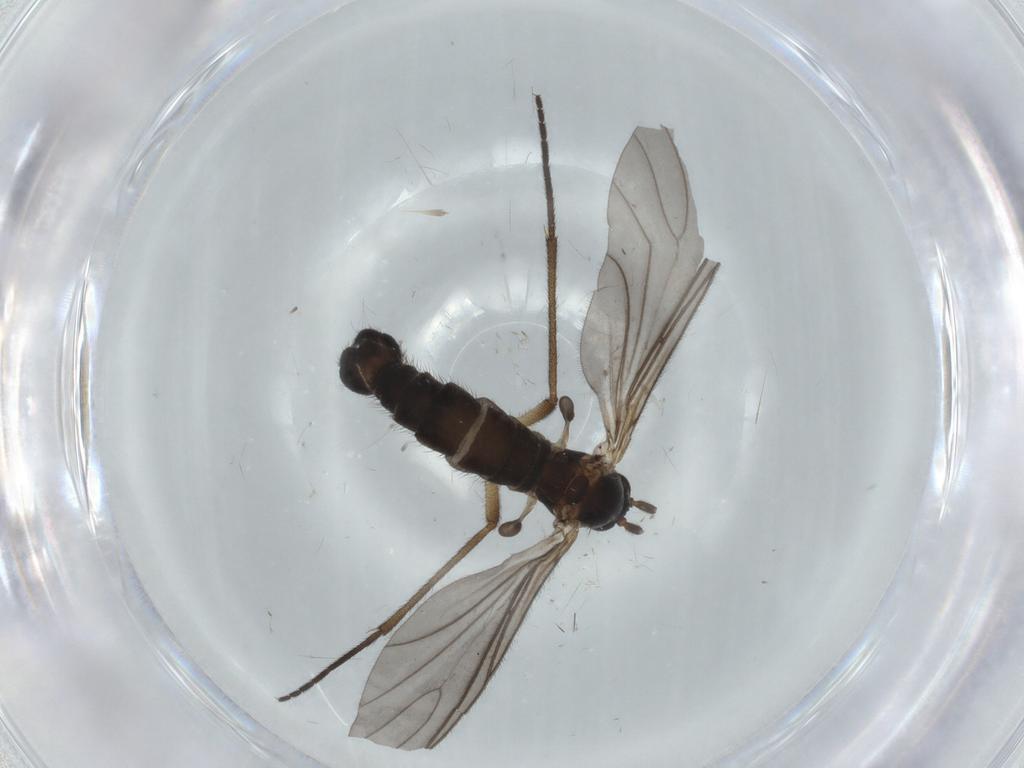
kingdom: Animalia
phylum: Arthropoda
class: Insecta
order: Diptera
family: Sciaridae
